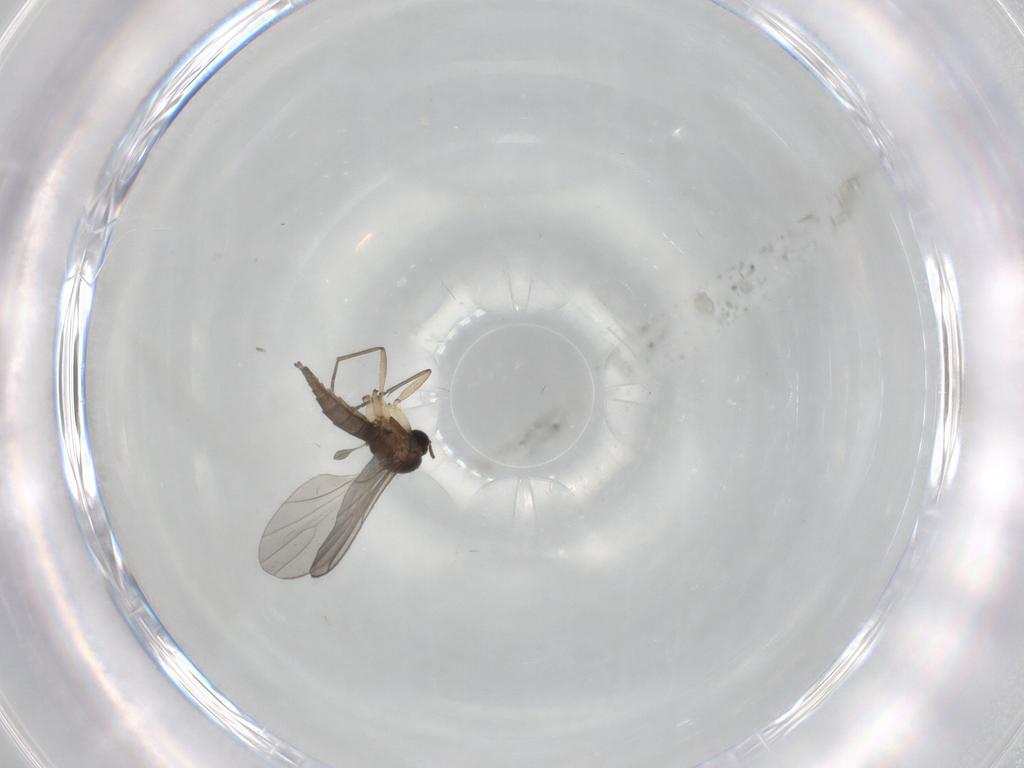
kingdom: Animalia
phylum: Arthropoda
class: Insecta
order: Diptera
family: Sciaridae
